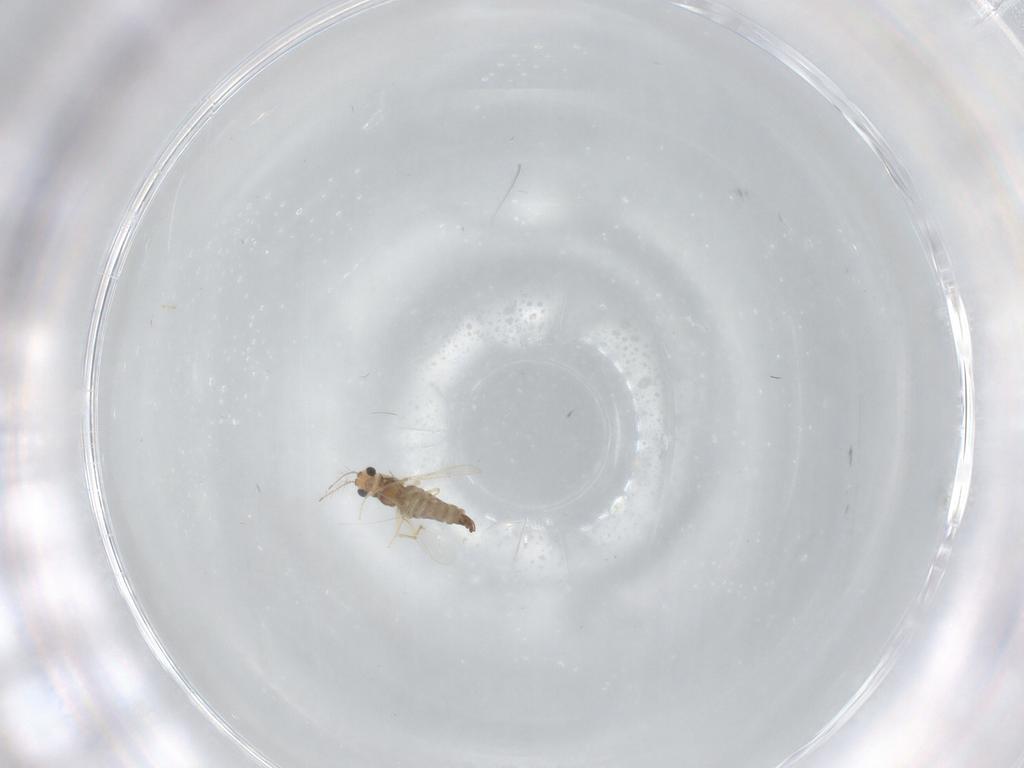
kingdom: Animalia
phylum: Arthropoda
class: Insecta
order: Diptera
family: Chironomidae
